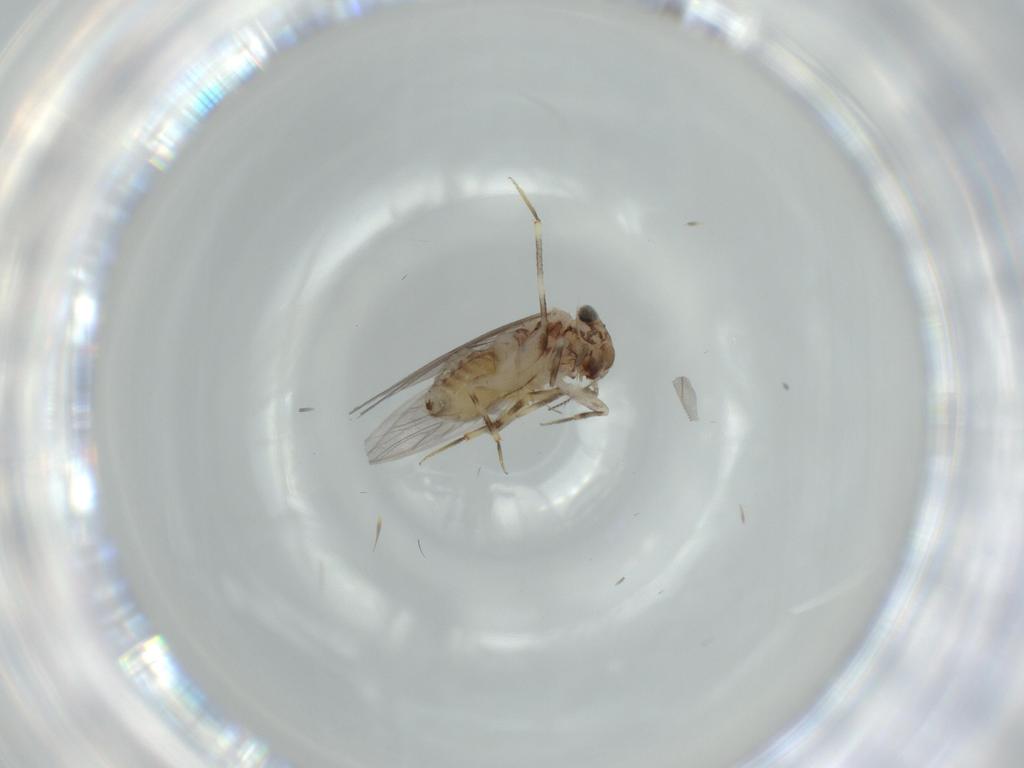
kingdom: Animalia
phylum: Arthropoda
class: Insecta
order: Psocodea
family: Lepidopsocidae
